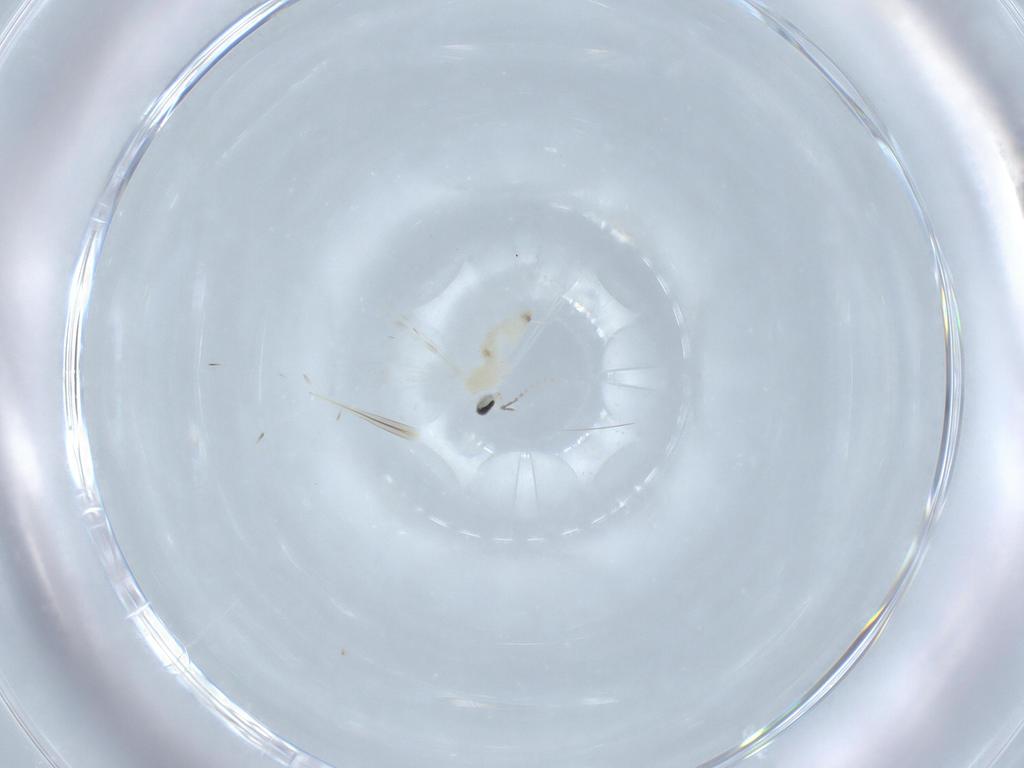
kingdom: Animalia
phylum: Arthropoda
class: Insecta
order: Diptera
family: Cecidomyiidae
